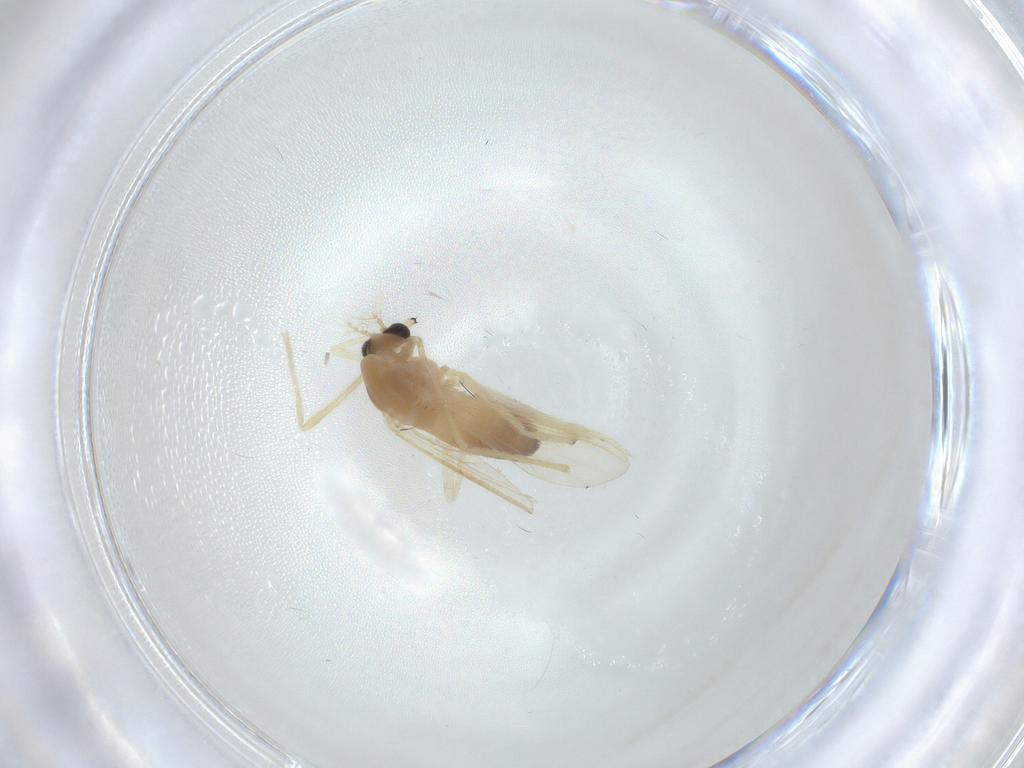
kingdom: Animalia
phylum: Arthropoda
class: Insecta
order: Diptera
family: Chironomidae
